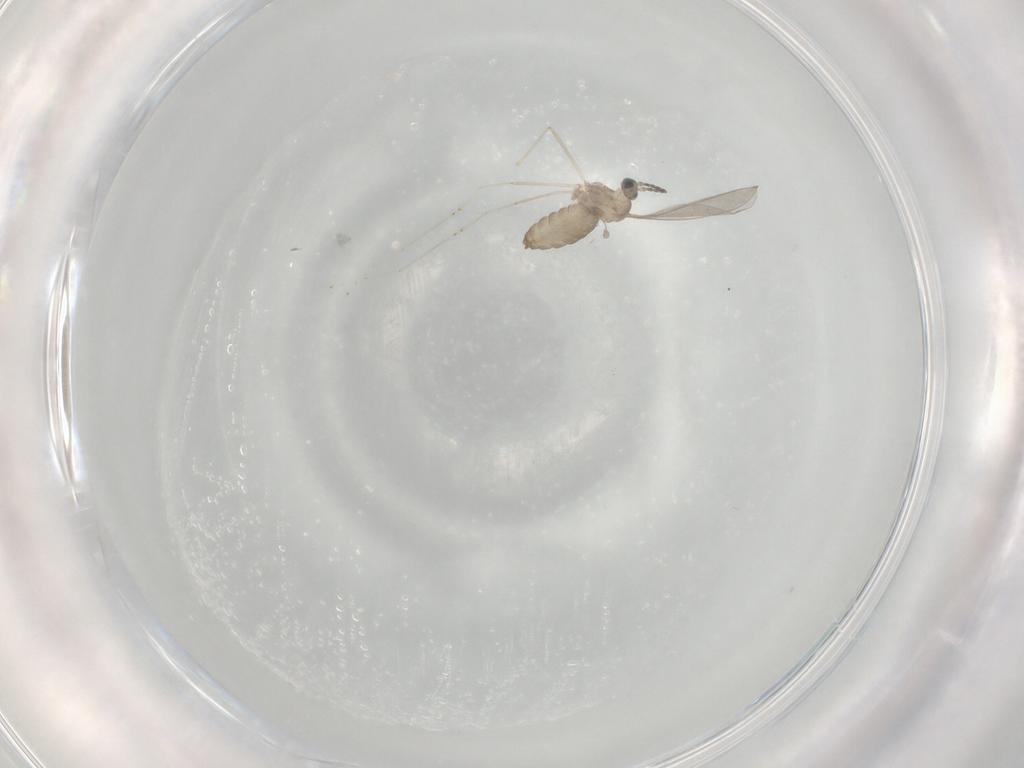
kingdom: Animalia
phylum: Arthropoda
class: Insecta
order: Diptera
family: Cecidomyiidae
